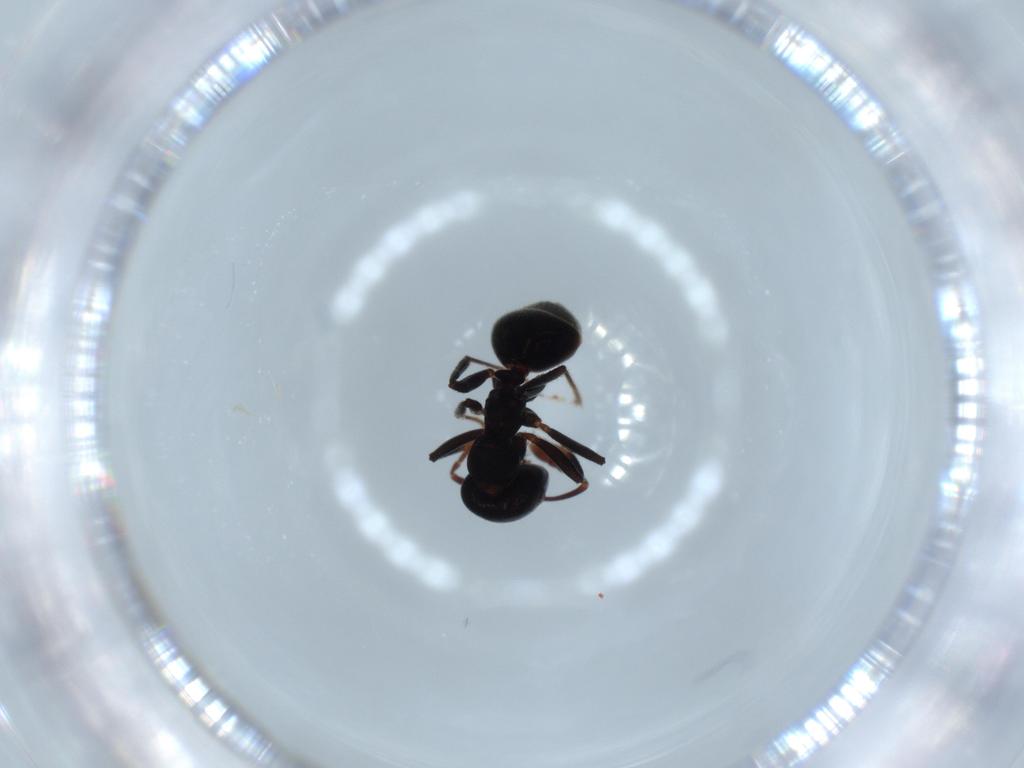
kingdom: Animalia
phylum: Arthropoda
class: Insecta
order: Hymenoptera
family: Formicidae
